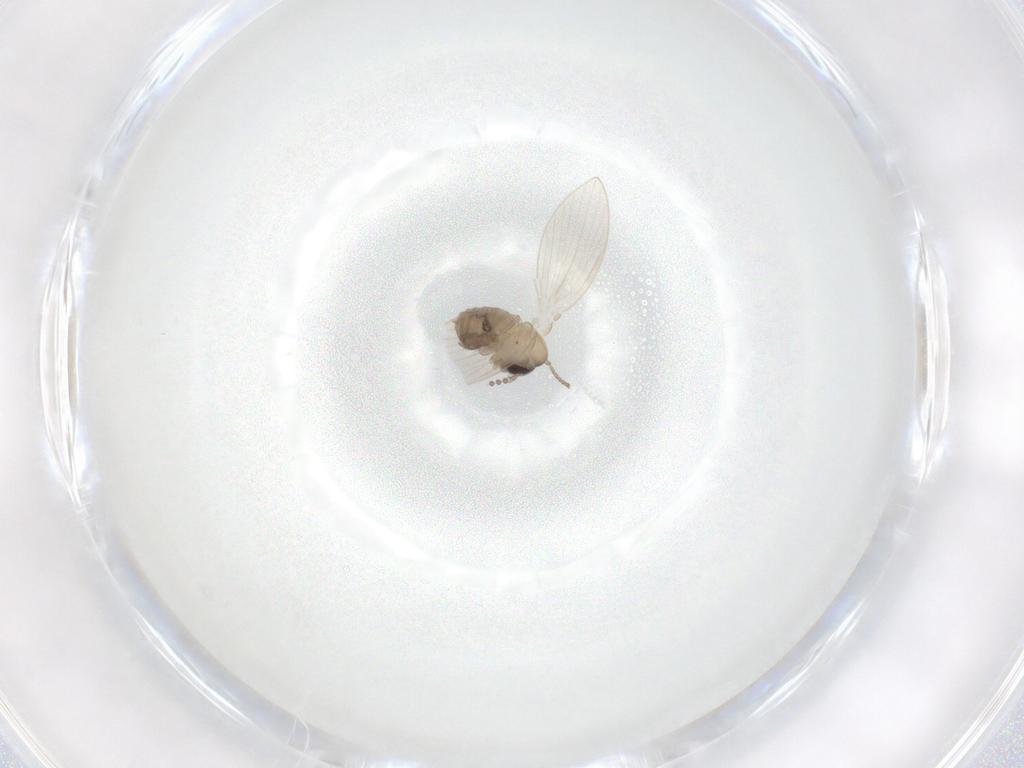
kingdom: Animalia
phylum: Arthropoda
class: Insecta
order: Diptera
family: Psychodidae
